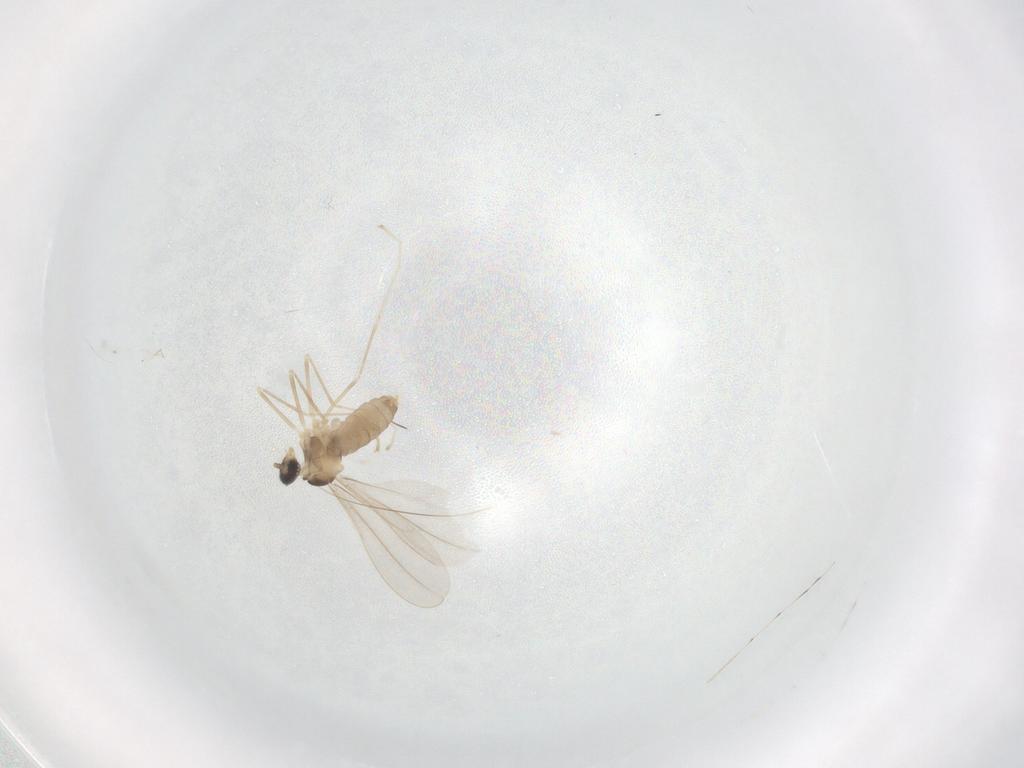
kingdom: Animalia
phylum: Arthropoda
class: Insecta
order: Diptera
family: Cecidomyiidae
